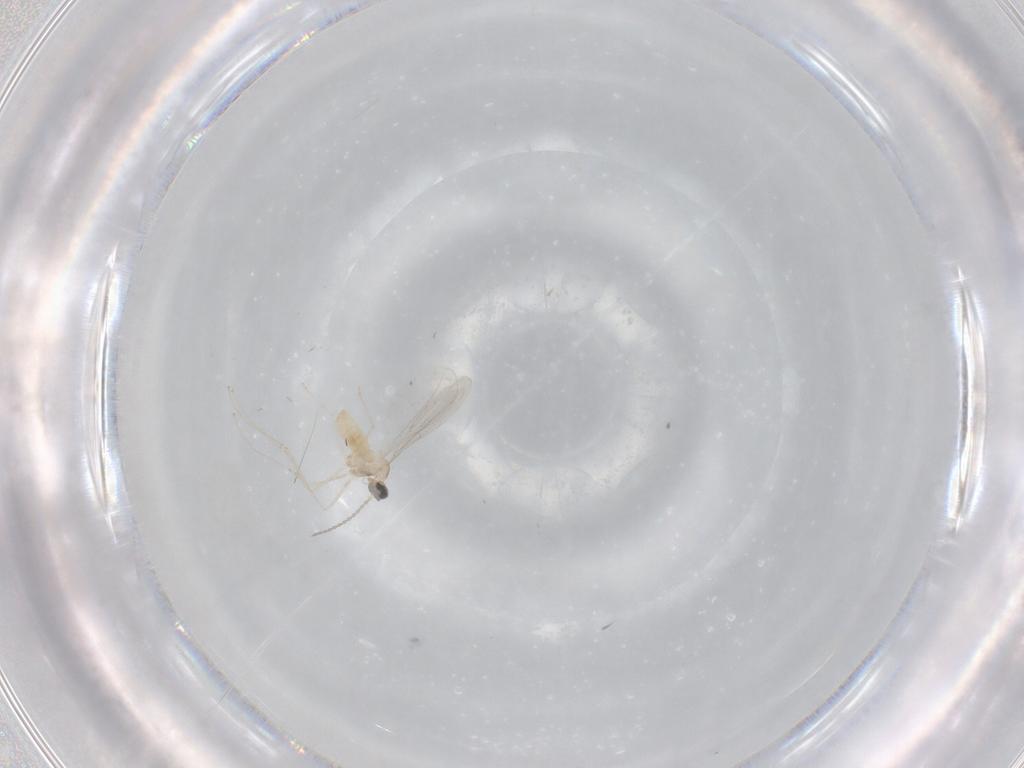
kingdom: Animalia
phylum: Arthropoda
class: Insecta
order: Diptera
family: Cecidomyiidae
